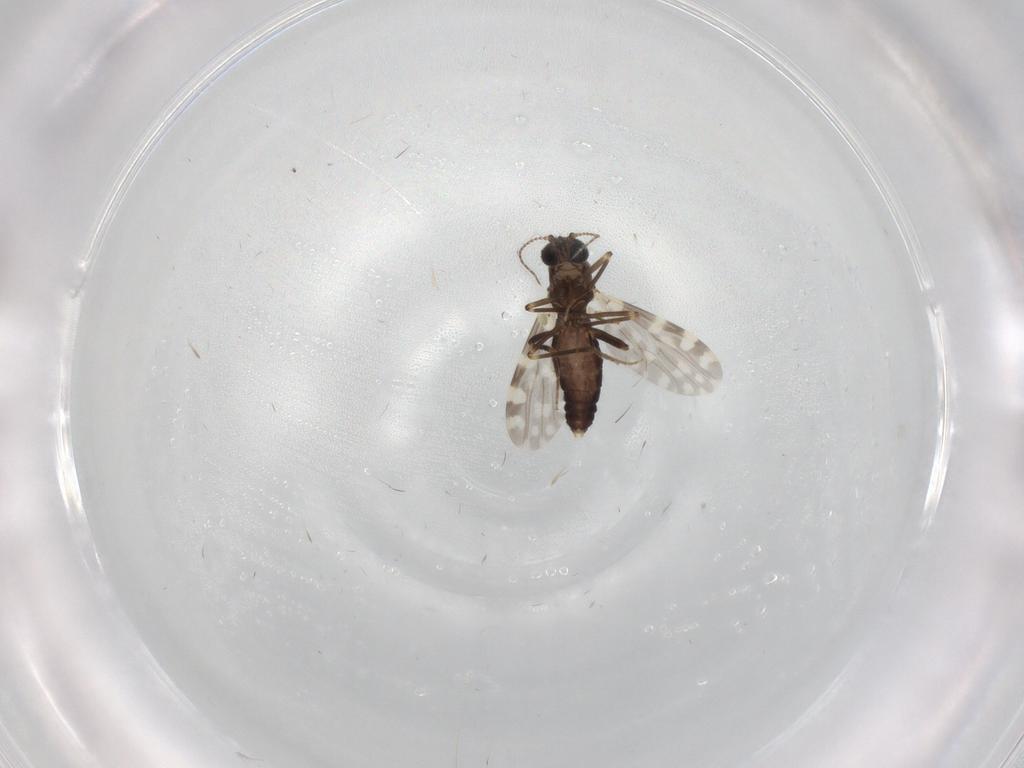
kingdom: Animalia
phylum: Arthropoda
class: Insecta
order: Diptera
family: Ceratopogonidae
